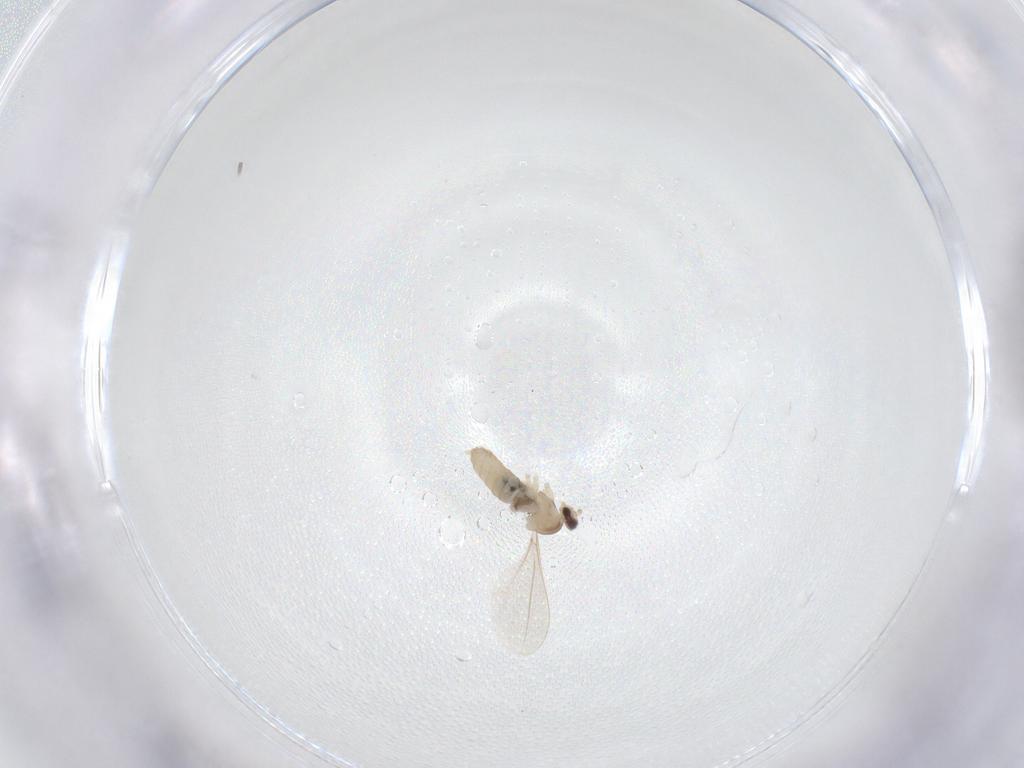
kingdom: Animalia
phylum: Arthropoda
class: Insecta
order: Diptera
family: Cecidomyiidae
